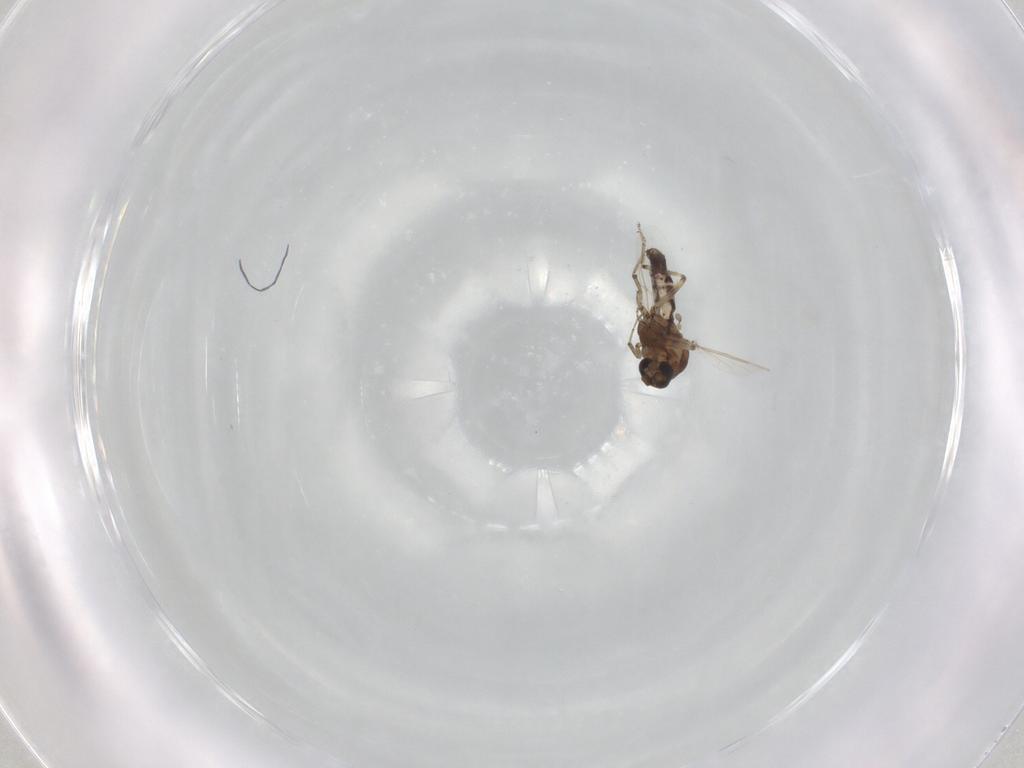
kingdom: Animalia
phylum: Arthropoda
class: Insecta
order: Diptera
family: Ceratopogonidae
